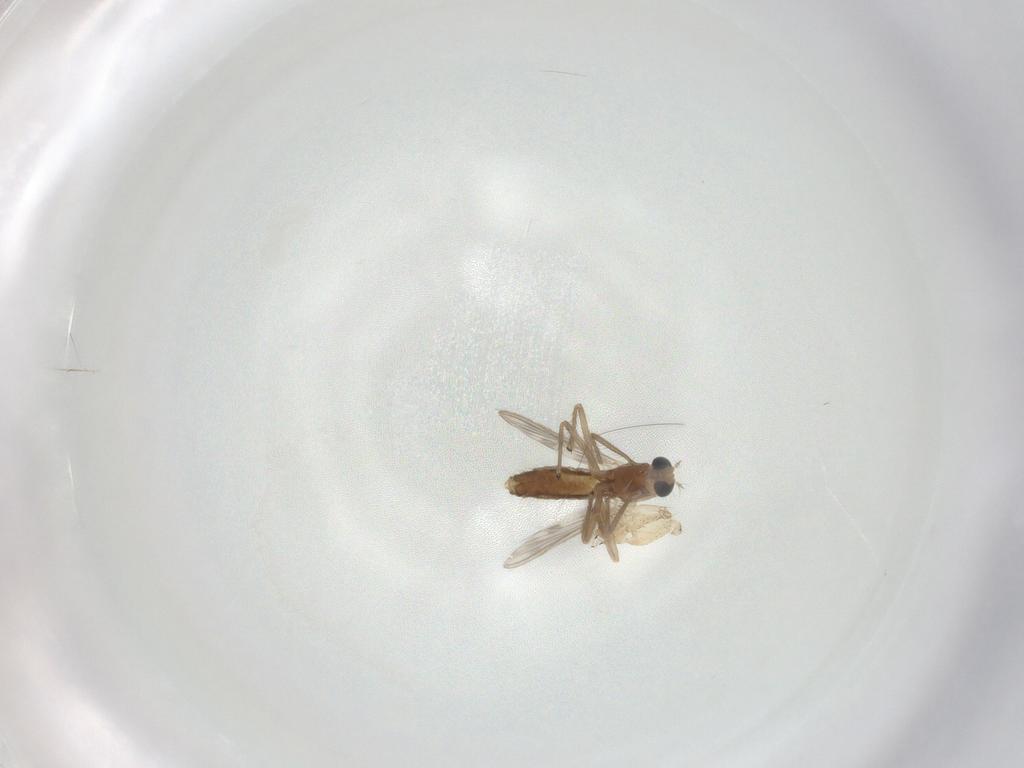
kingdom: Animalia
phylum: Arthropoda
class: Insecta
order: Diptera
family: Chironomidae
